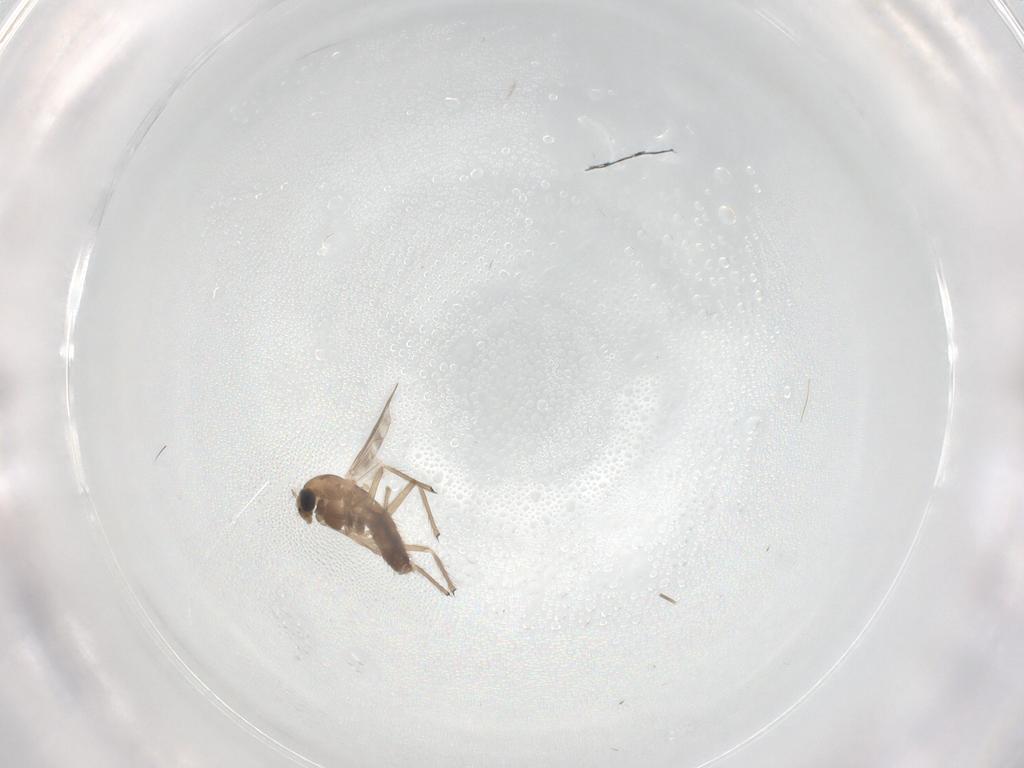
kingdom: Animalia
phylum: Arthropoda
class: Insecta
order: Diptera
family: Chironomidae
